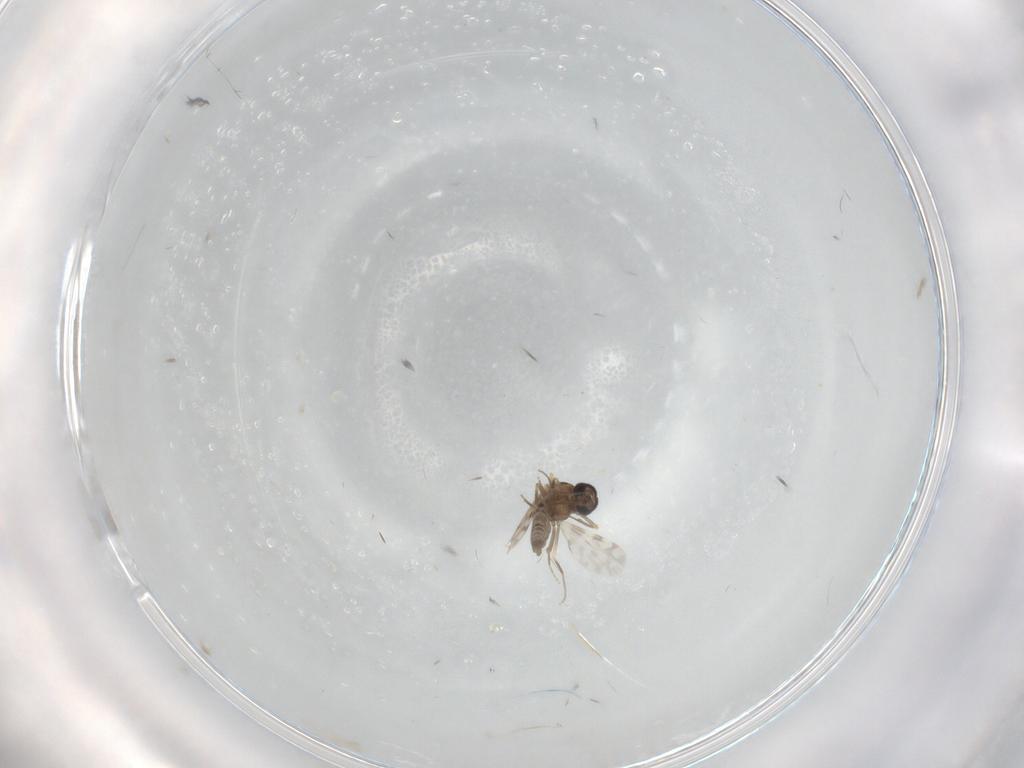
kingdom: Animalia
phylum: Arthropoda
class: Insecta
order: Diptera
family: Ceratopogonidae
